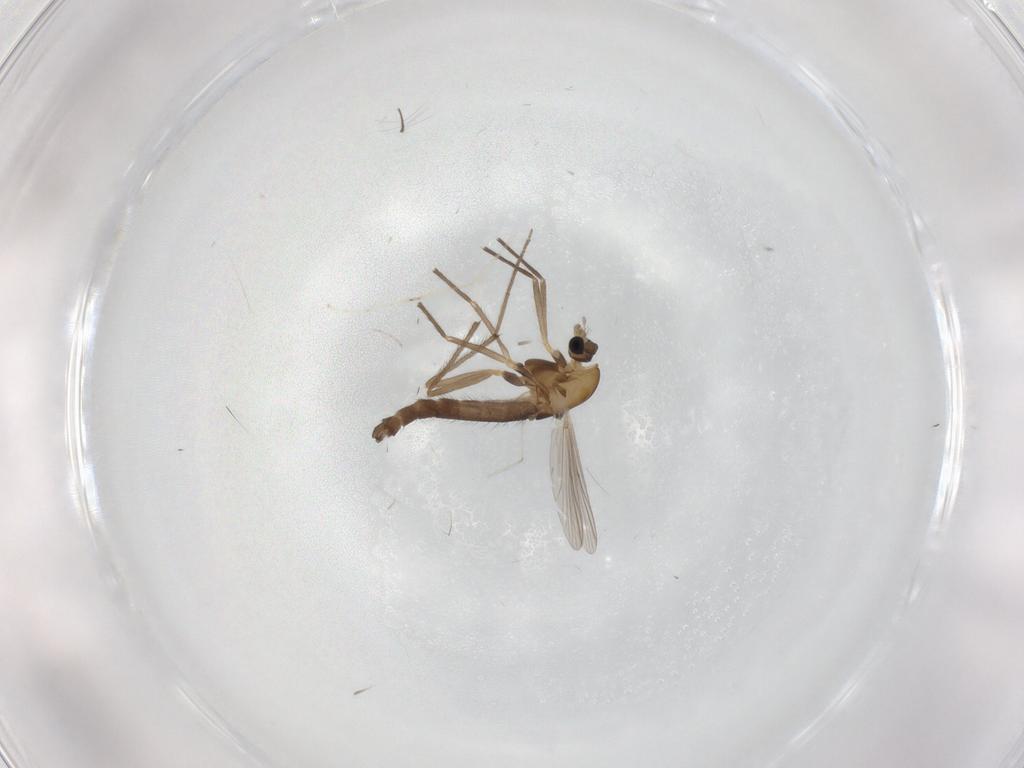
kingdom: Animalia
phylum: Arthropoda
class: Insecta
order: Diptera
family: Chironomidae
